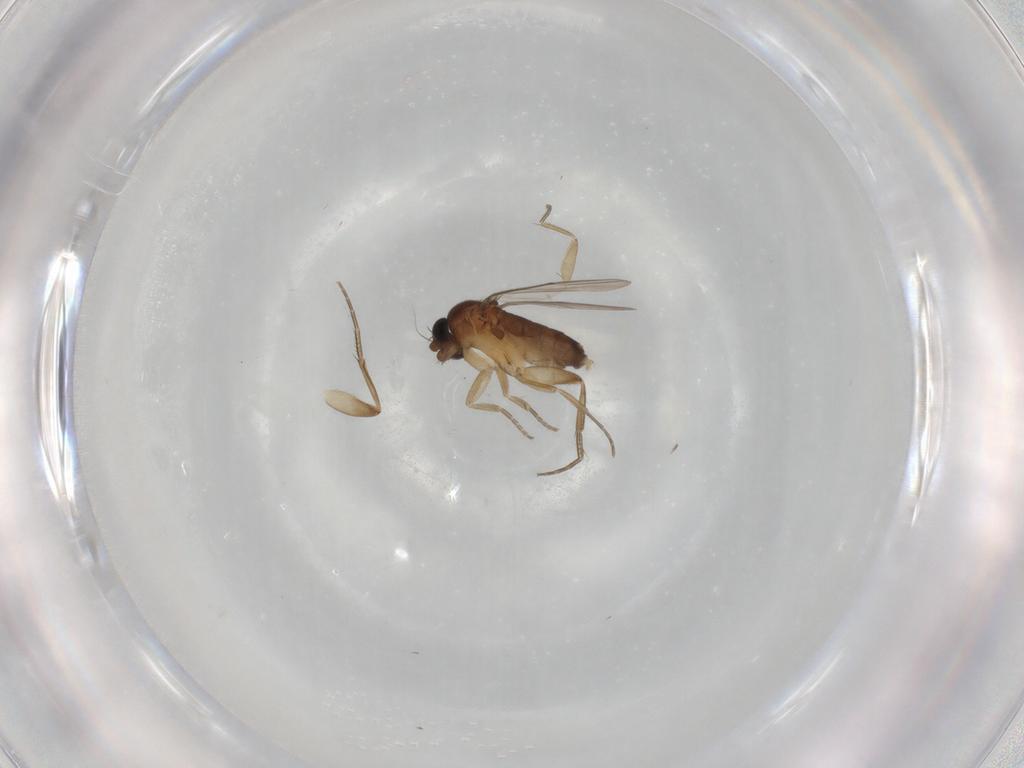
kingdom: Animalia
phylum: Arthropoda
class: Insecta
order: Diptera
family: Phoridae
